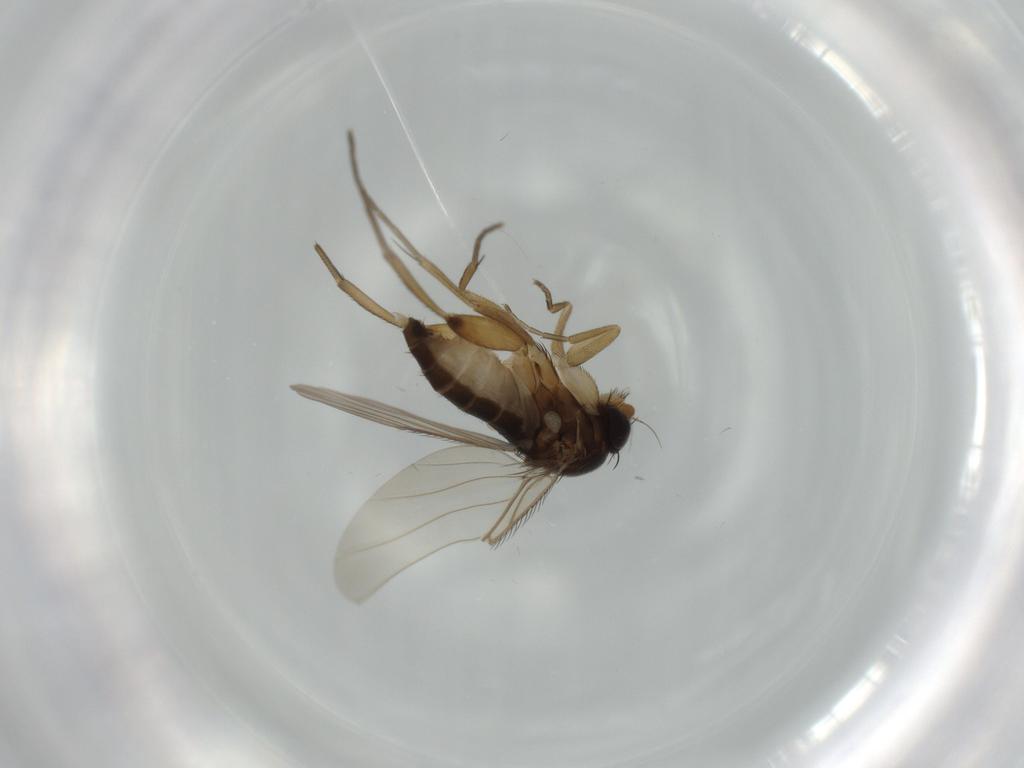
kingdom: Animalia
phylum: Arthropoda
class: Insecta
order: Diptera
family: Phoridae
